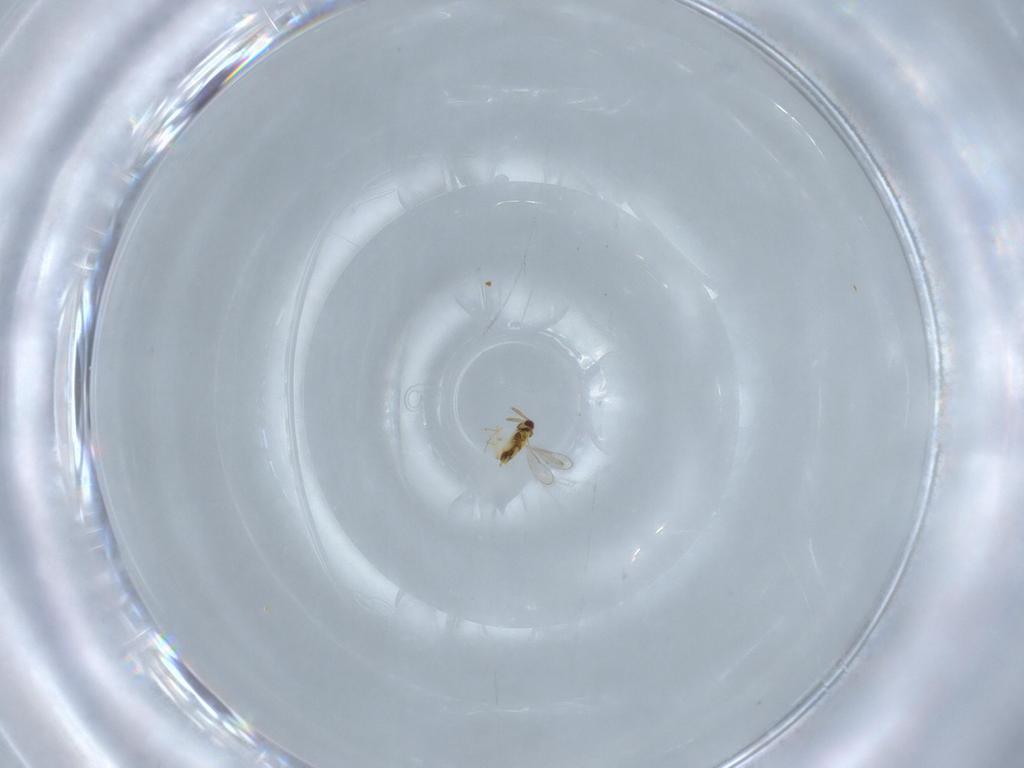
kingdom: Animalia
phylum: Arthropoda
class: Insecta
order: Hymenoptera
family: Aphelinidae
